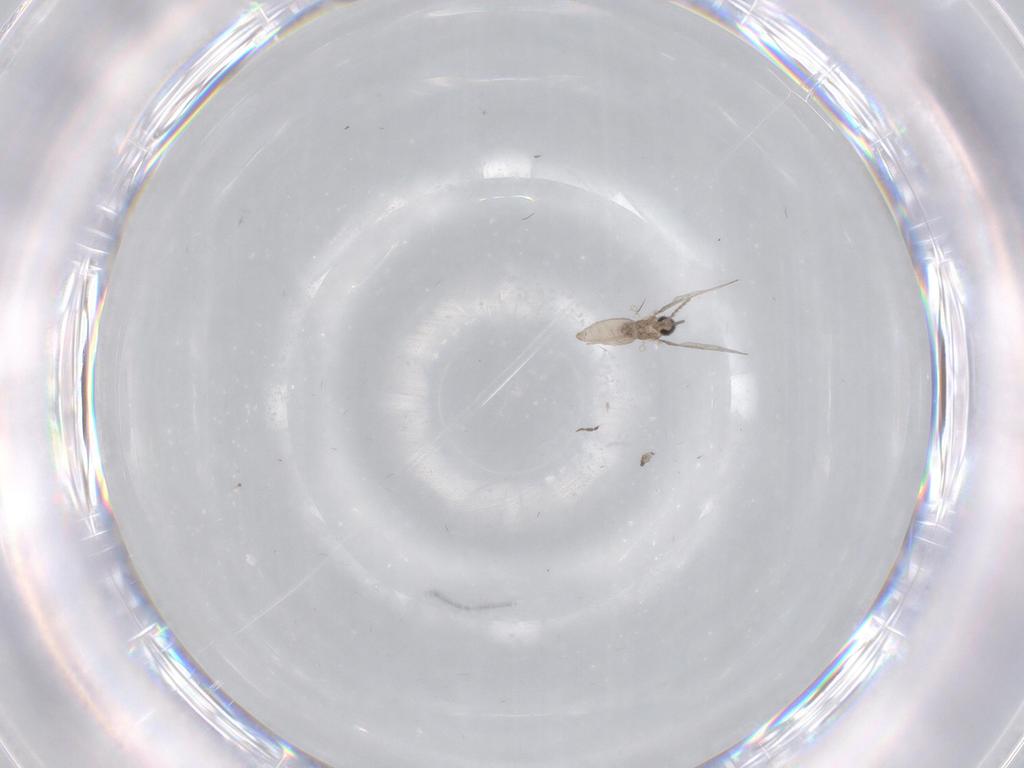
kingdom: Animalia
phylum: Arthropoda
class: Insecta
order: Diptera
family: Cecidomyiidae
